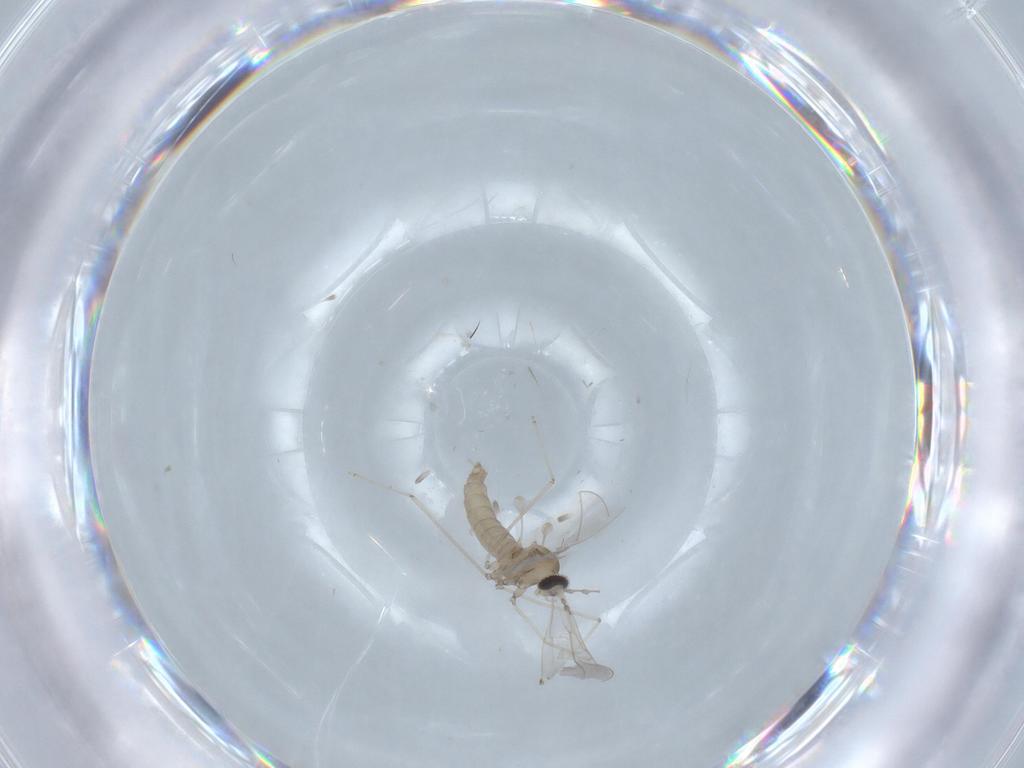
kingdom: Animalia
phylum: Arthropoda
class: Insecta
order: Diptera
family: Cecidomyiidae
